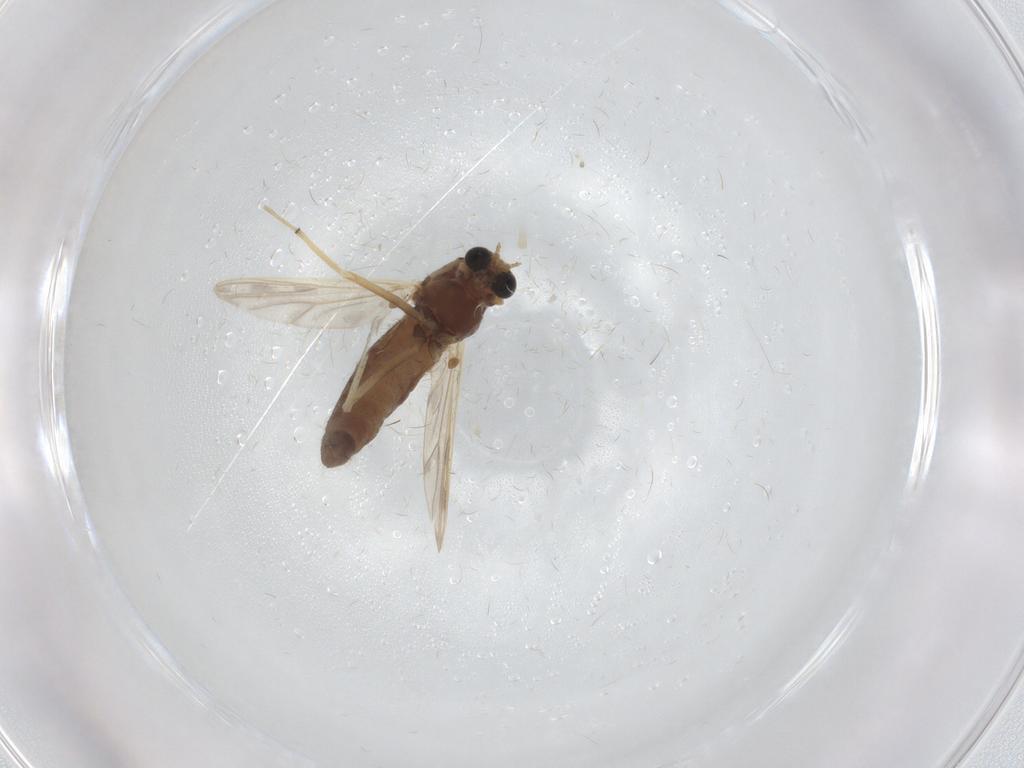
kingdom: Animalia
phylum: Arthropoda
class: Insecta
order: Diptera
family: Chironomidae
